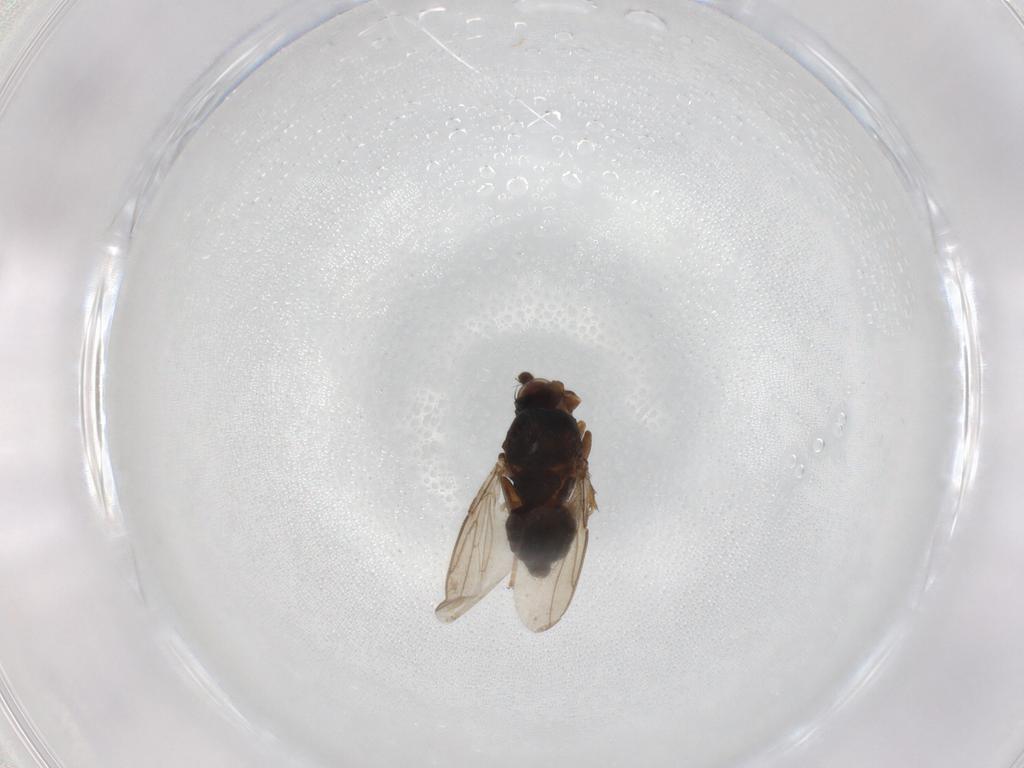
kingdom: Animalia
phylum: Arthropoda
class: Insecta
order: Diptera
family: Sphaeroceridae
